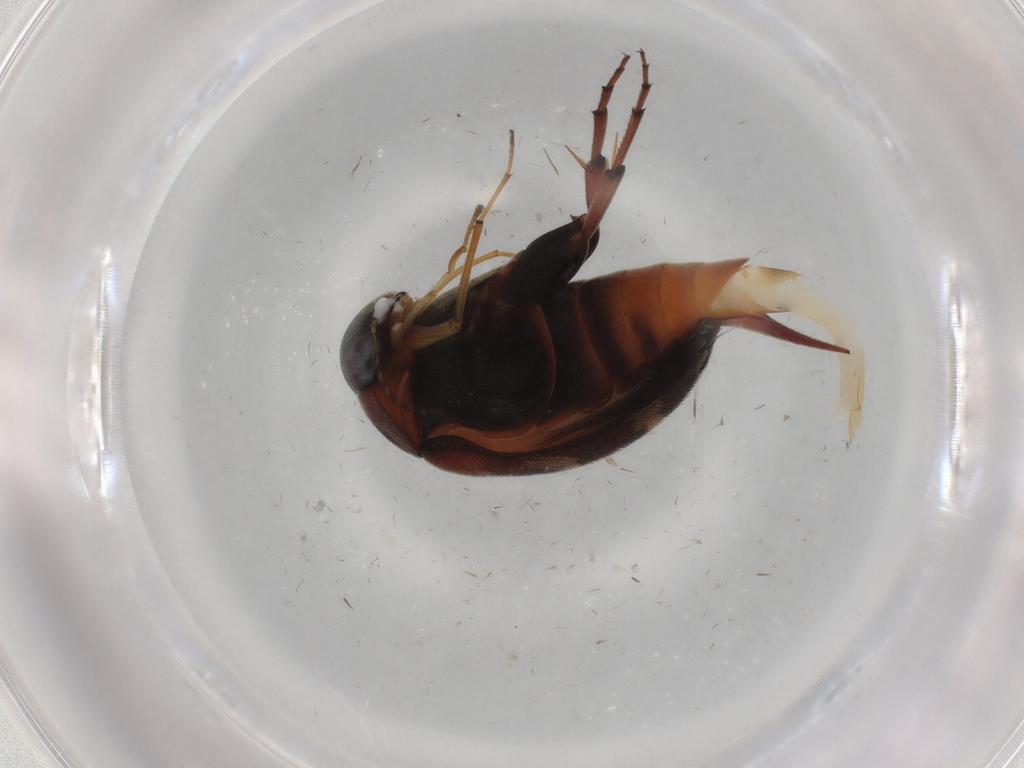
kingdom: Animalia
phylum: Arthropoda
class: Insecta
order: Coleoptera
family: Mordellidae
